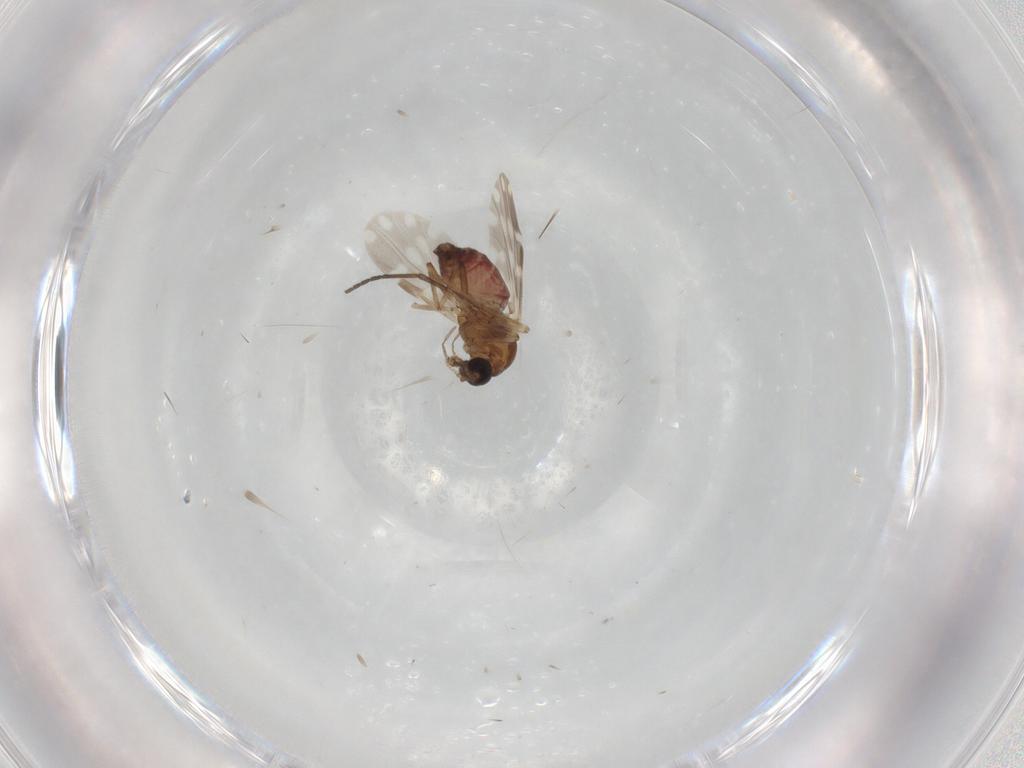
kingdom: Animalia
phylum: Arthropoda
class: Insecta
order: Diptera
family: Ceratopogonidae
